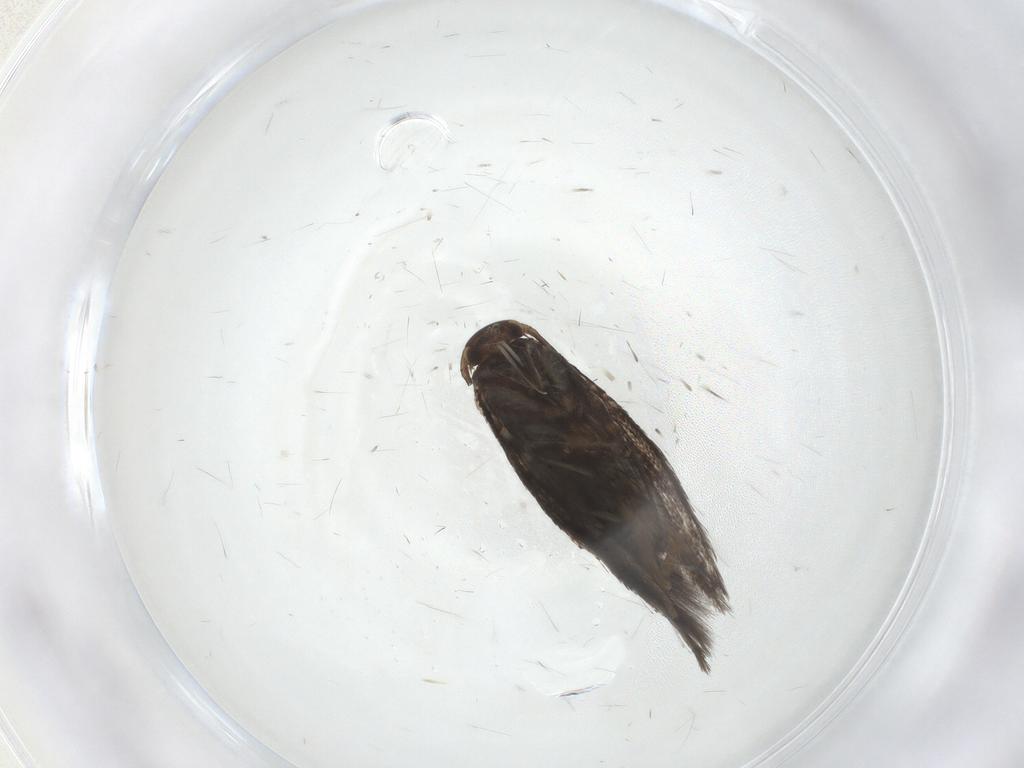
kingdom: Animalia
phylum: Arthropoda
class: Insecta
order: Lepidoptera
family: Elachistidae
